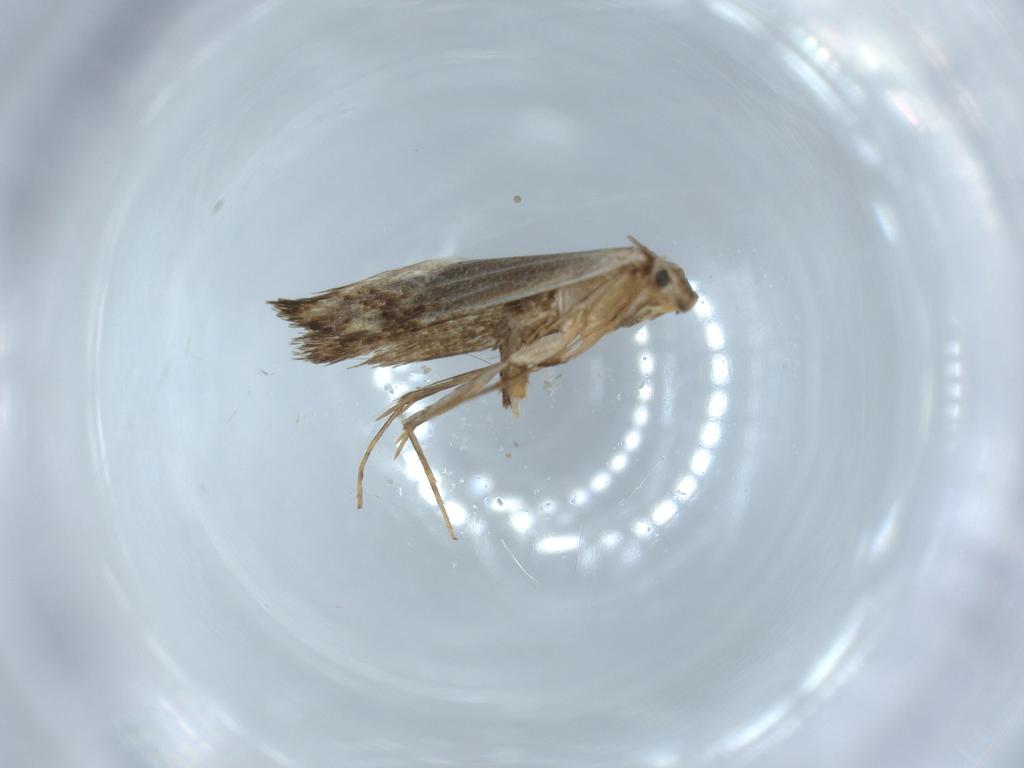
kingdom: Animalia
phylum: Arthropoda
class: Insecta
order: Lepidoptera
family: Tineidae
